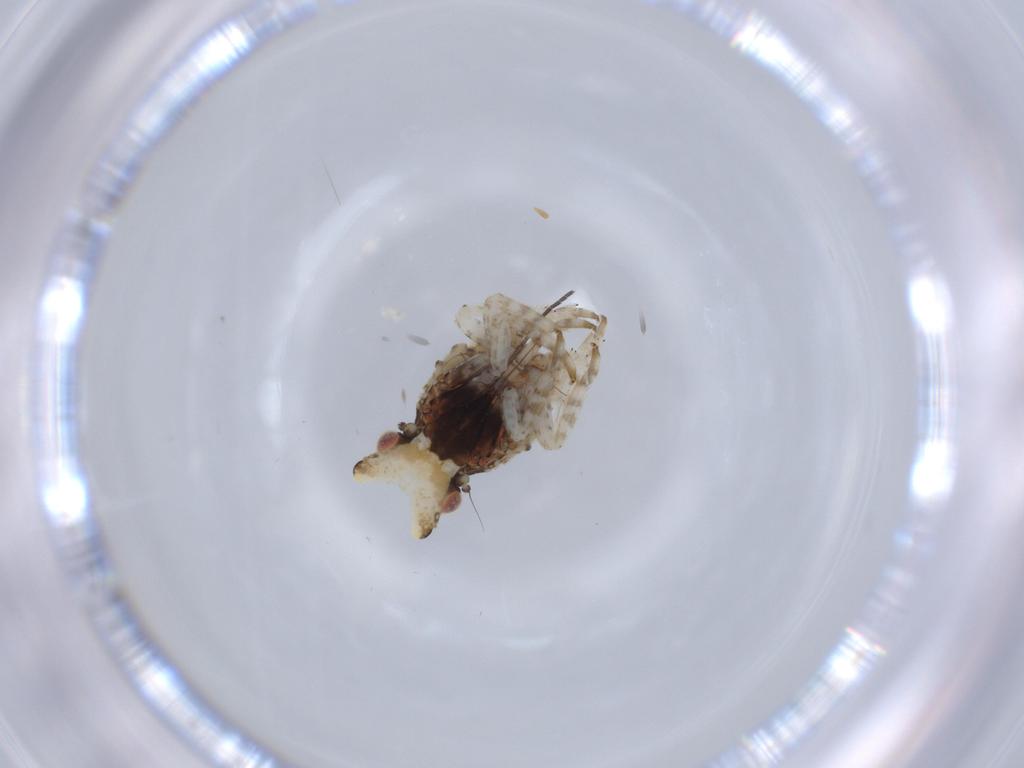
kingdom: Animalia
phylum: Arthropoda
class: Insecta
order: Hemiptera
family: Fulgoridae
